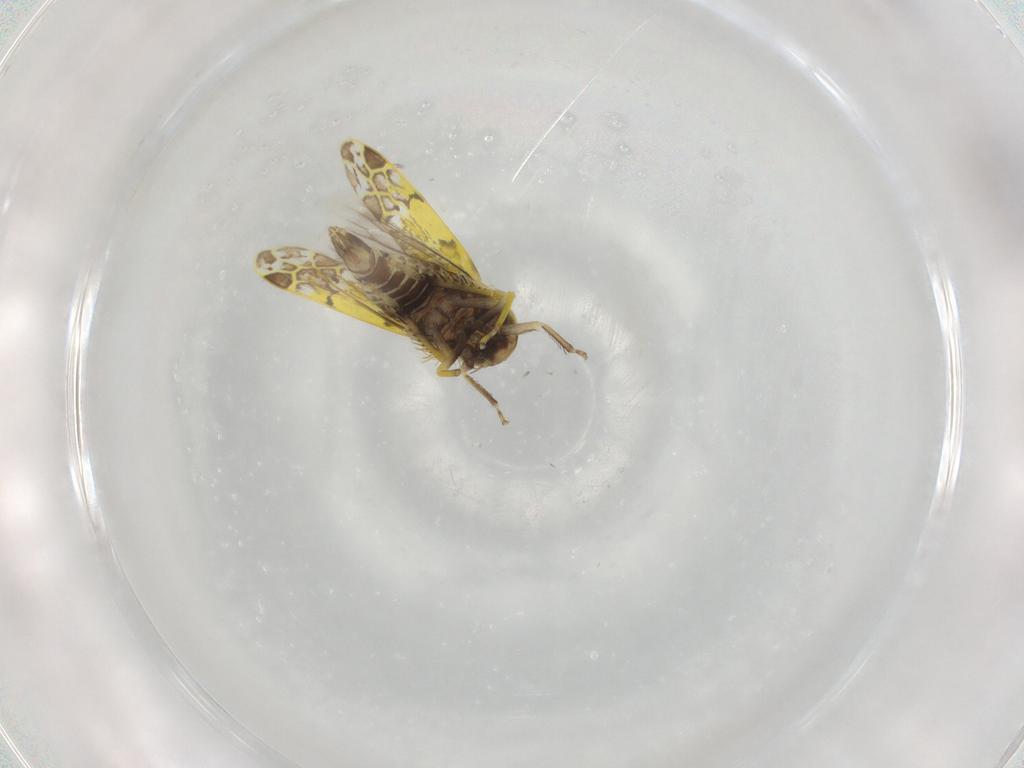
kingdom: Animalia
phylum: Arthropoda
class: Insecta
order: Hemiptera
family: Cicadellidae
